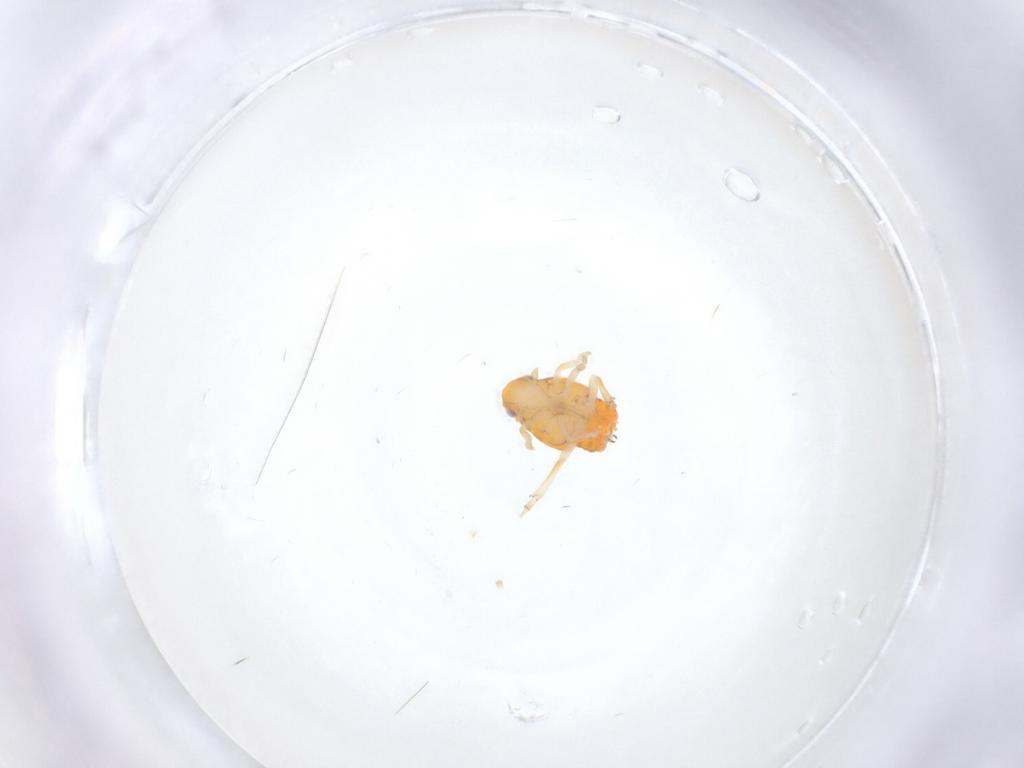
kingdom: Animalia
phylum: Arthropoda
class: Insecta
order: Hemiptera
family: Ricaniidae
